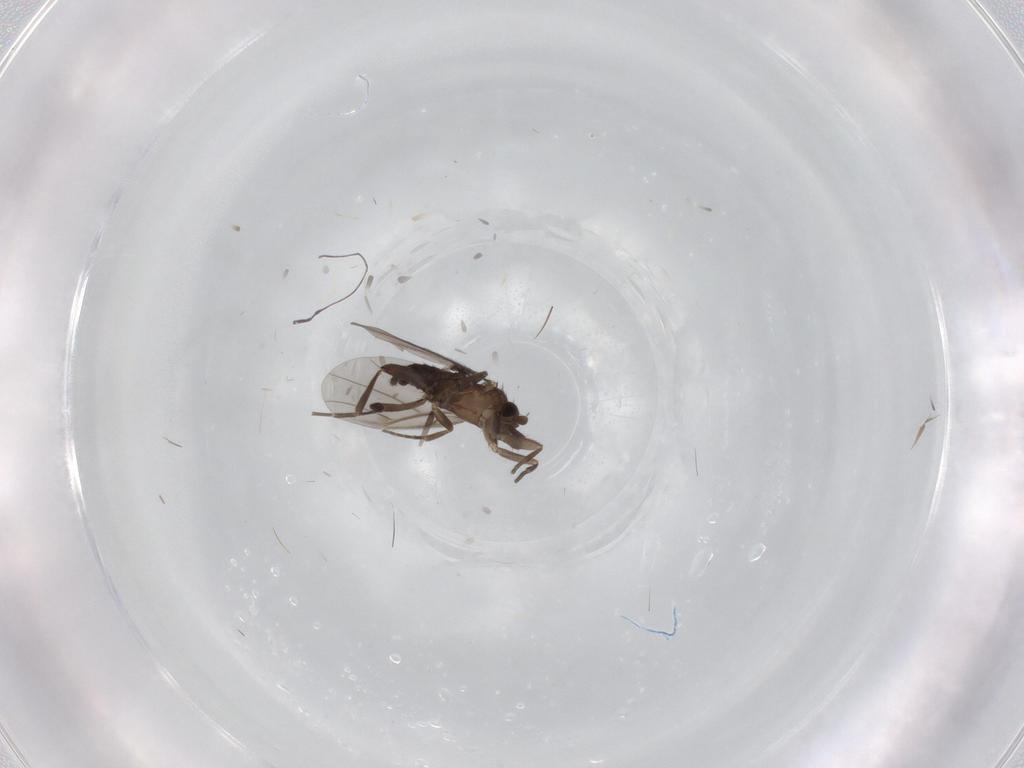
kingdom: Animalia
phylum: Arthropoda
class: Insecta
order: Diptera
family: Cecidomyiidae
